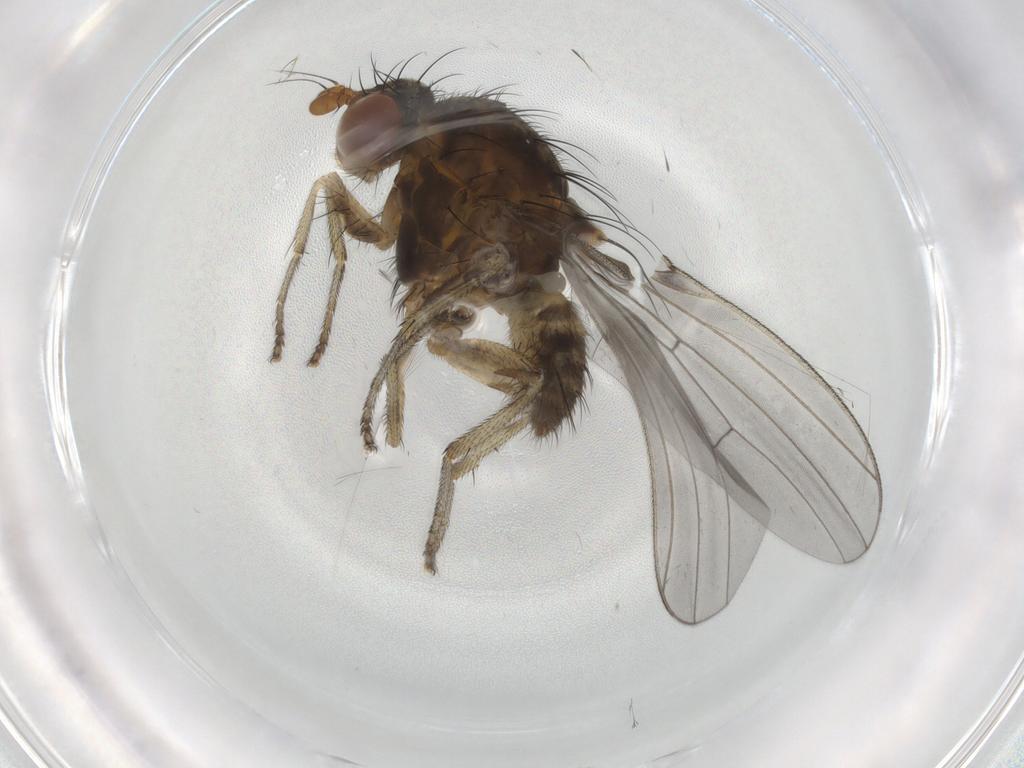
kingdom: Animalia
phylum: Arthropoda
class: Insecta
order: Diptera
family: Lauxaniidae
